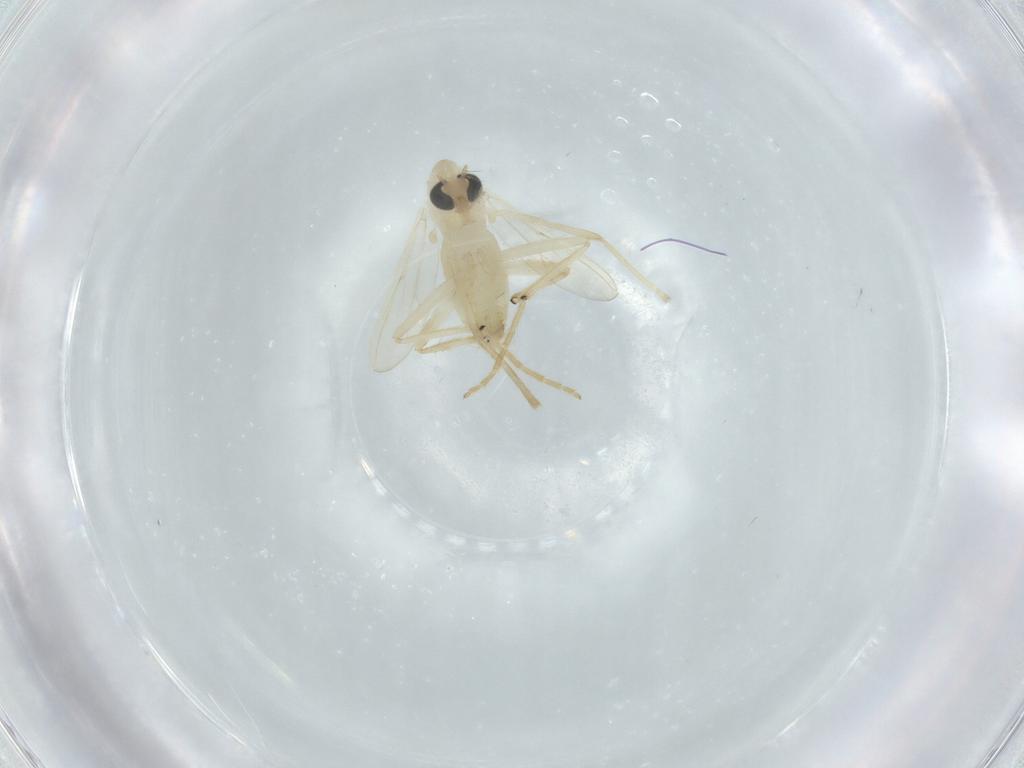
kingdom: Animalia
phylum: Arthropoda
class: Insecta
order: Diptera
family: Chironomidae
